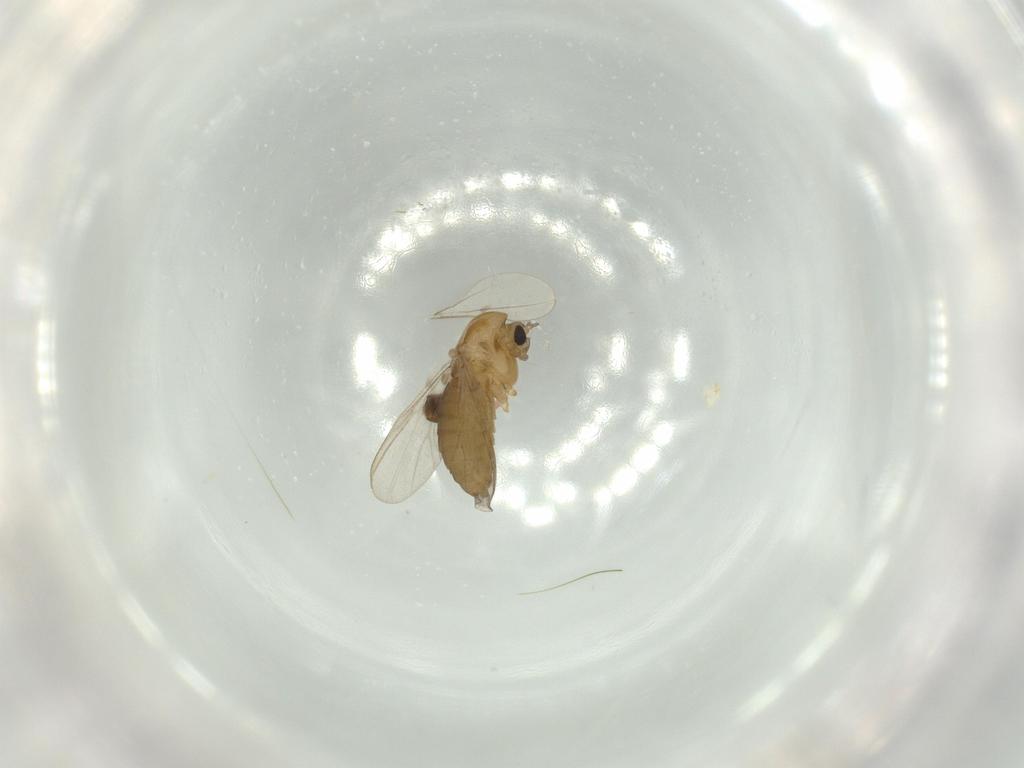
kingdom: Animalia
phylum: Arthropoda
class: Insecta
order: Diptera
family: Chironomidae
